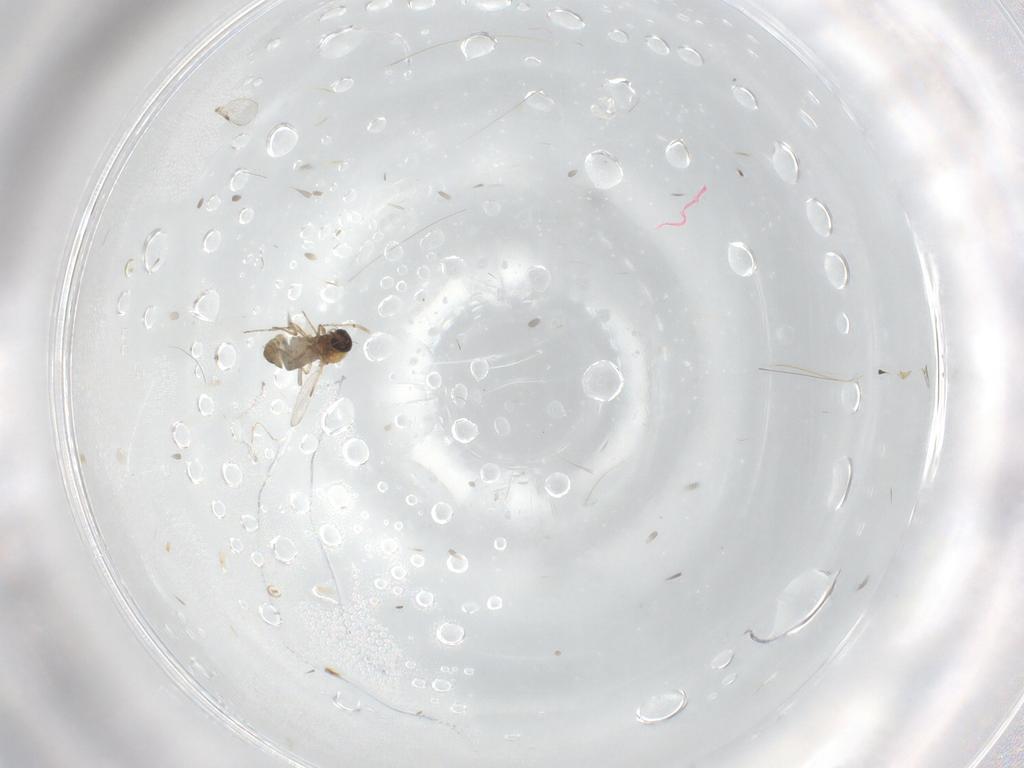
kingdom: Animalia
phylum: Arthropoda
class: Insecta
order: Diptera
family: Ceratopogonidae
